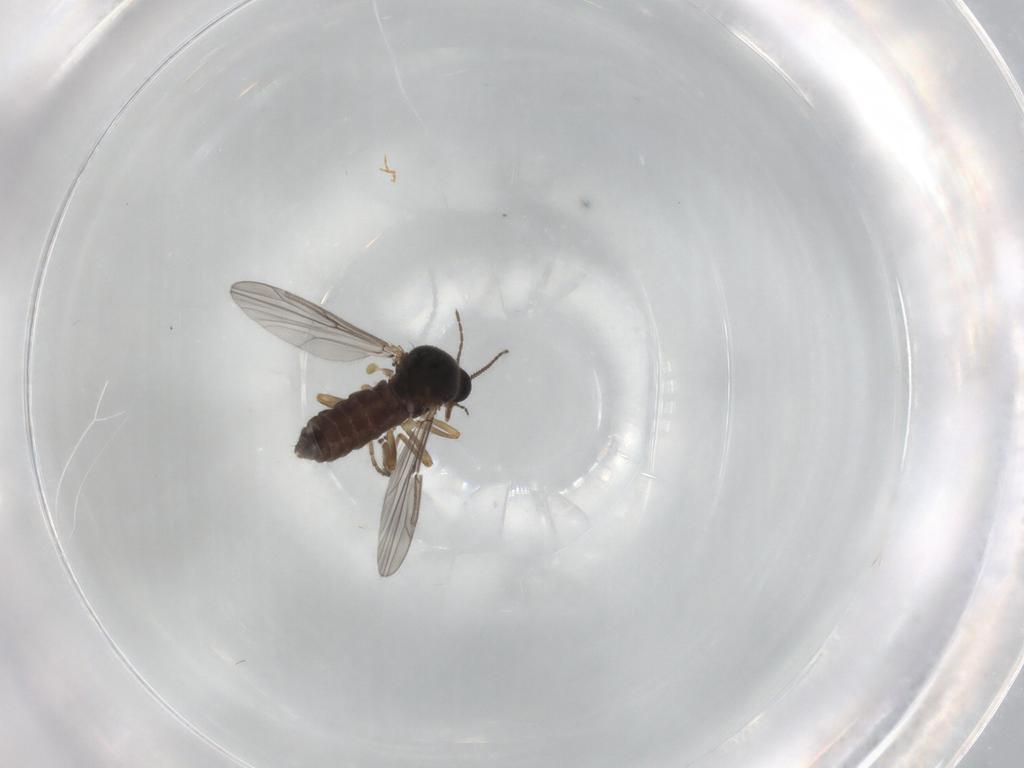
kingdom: Animalia
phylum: Arthropoda
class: Insecta
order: Diptera
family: Ceratopogonidae
